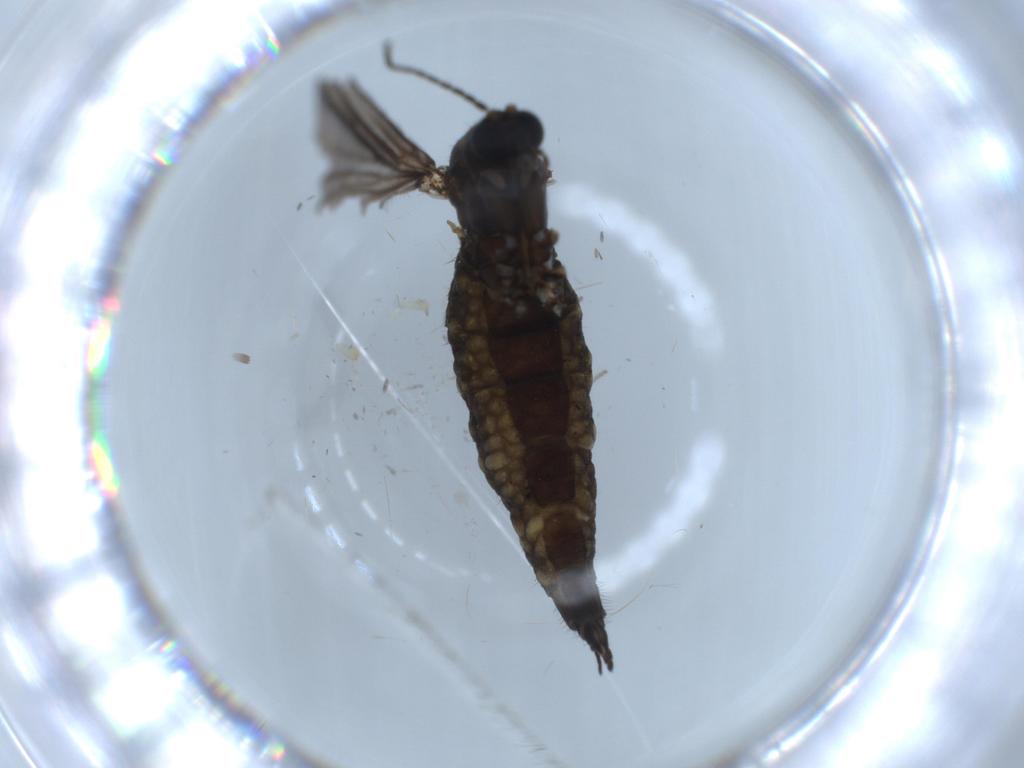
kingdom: Animalia
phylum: Arthropoda
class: Insecta
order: Diptera
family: Sciaridae
